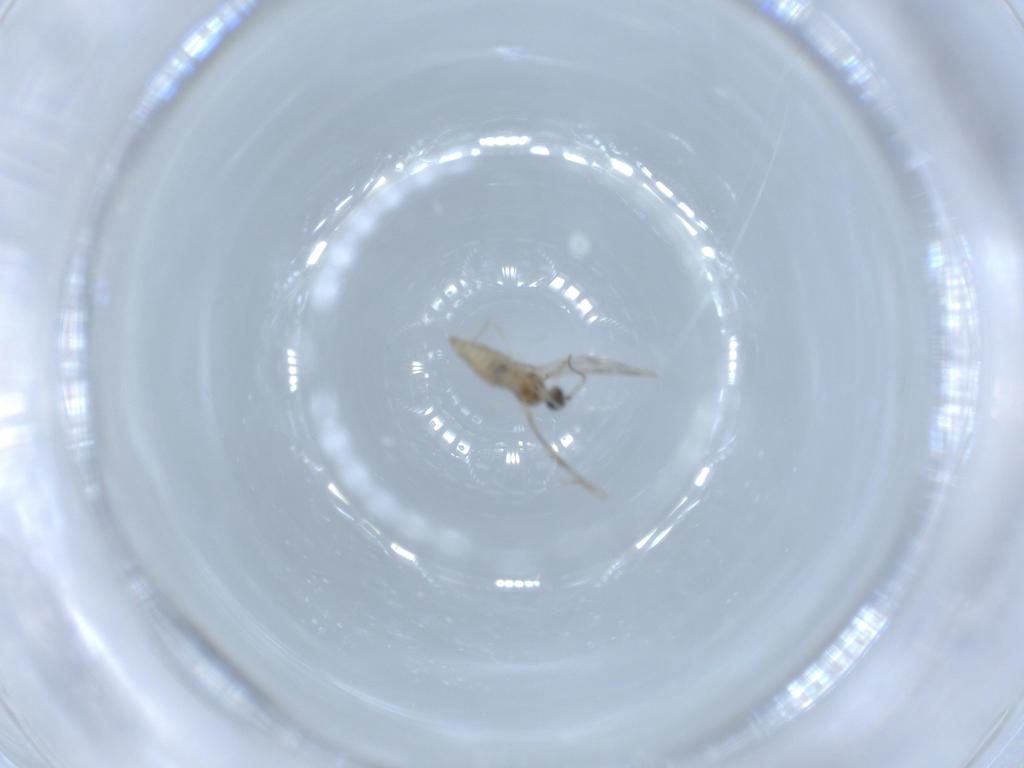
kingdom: Animalia
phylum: Arthropoda
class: Insecta
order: Diptera
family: Cecidomyiidae
